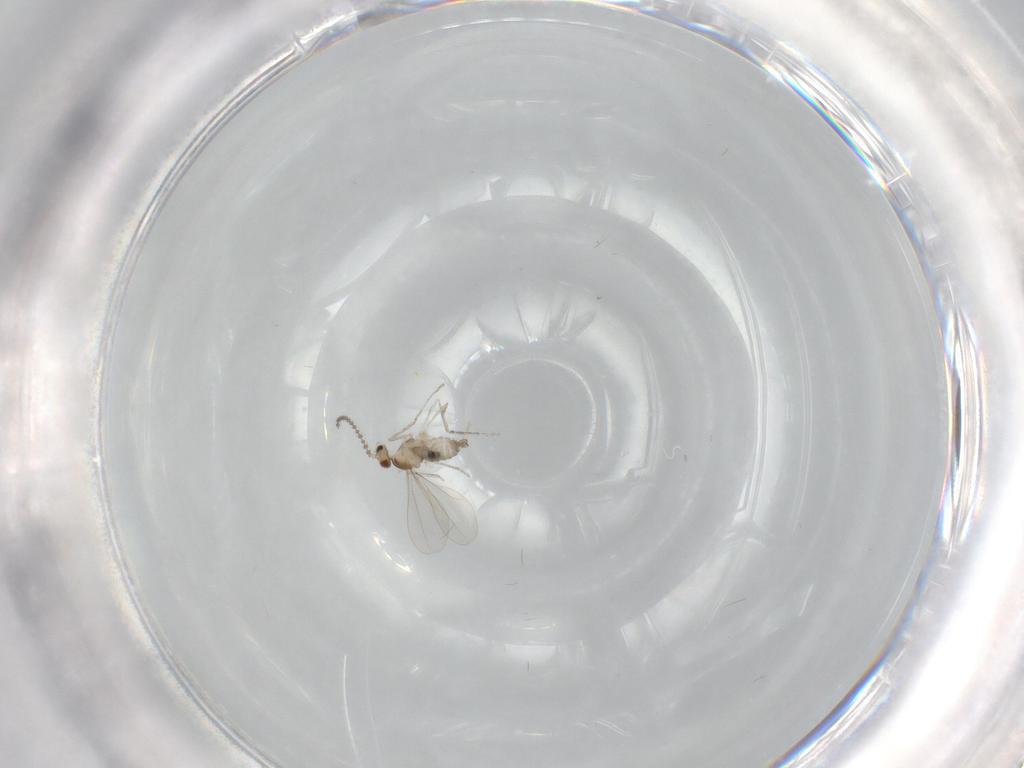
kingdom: Animalia
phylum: Arthropoda
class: Insecta
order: Diptera
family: Cecidomyiidae
